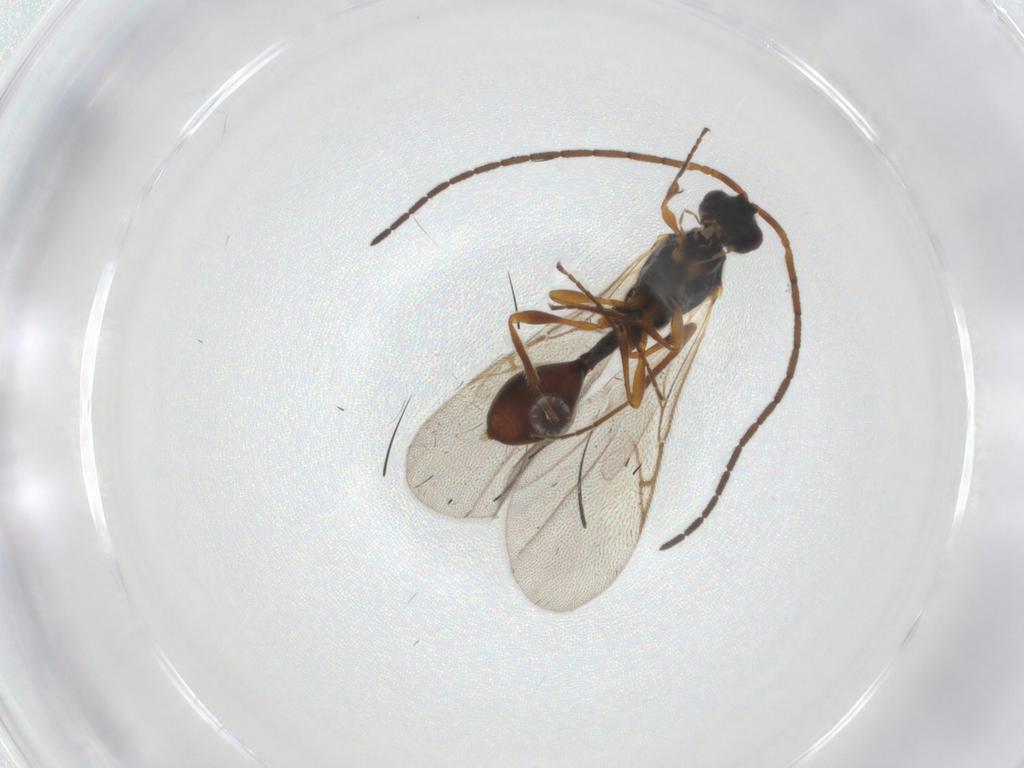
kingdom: Animalia
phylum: Arthropoda
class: Insecta
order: Hymenoptera
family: Diapriidae
